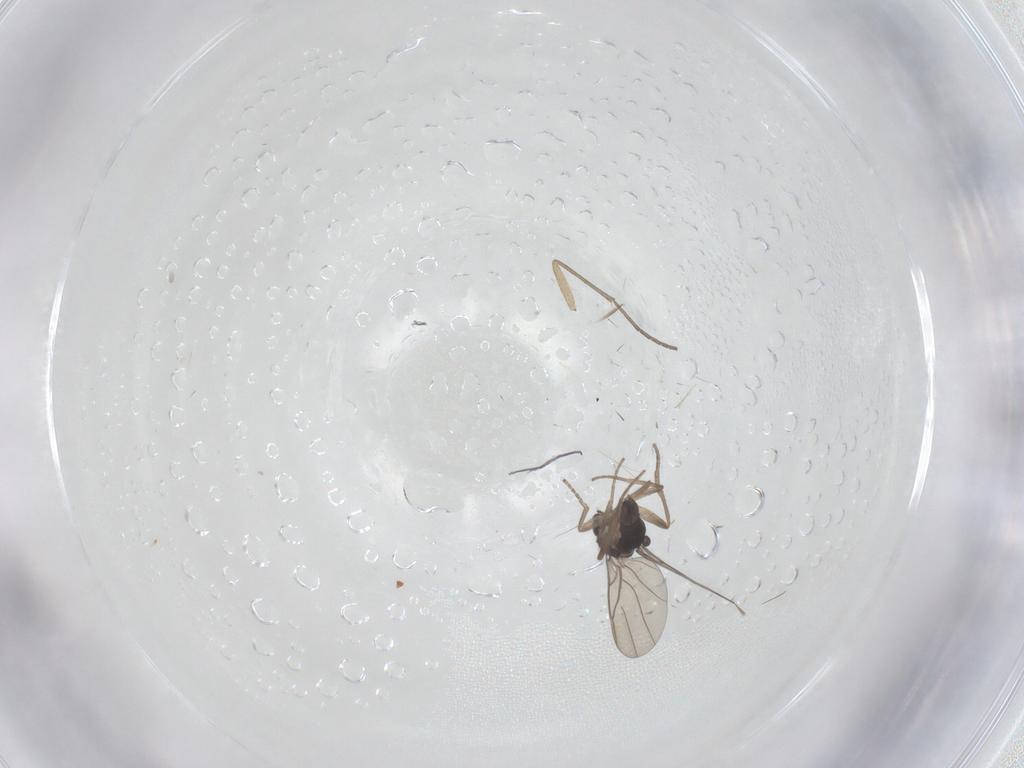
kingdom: Animalia
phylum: Arthropoda
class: Insecta
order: Diptera
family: Phoridae
